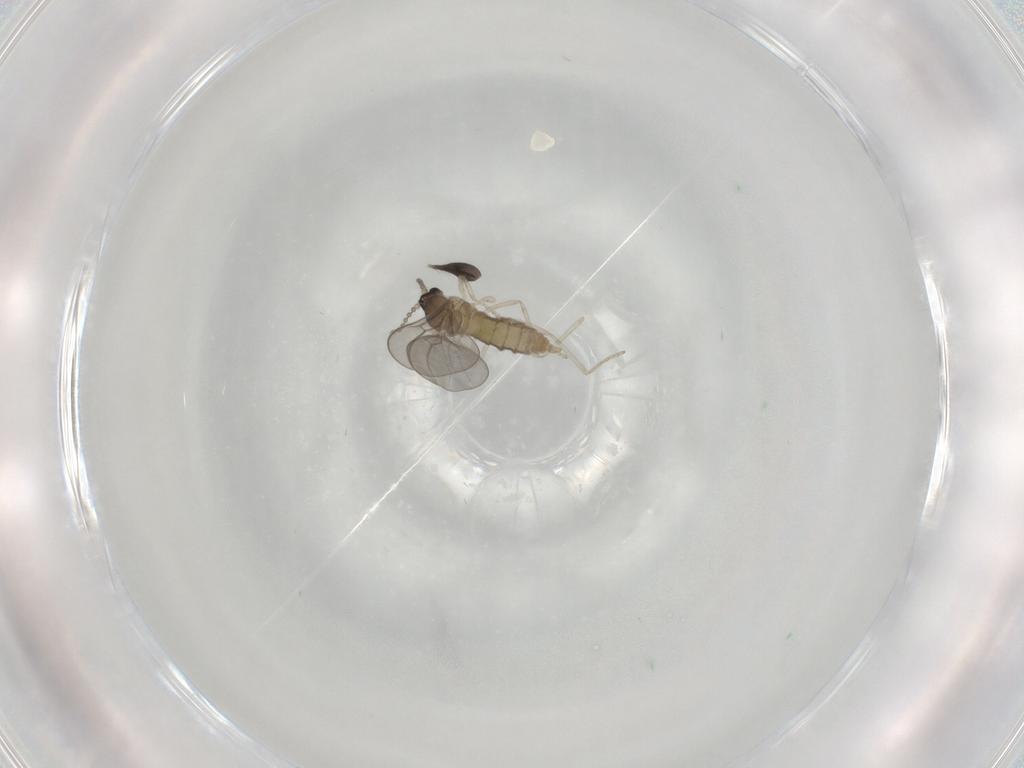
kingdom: Animalia
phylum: Arthropoda
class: Insecta
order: Diptera
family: Cecidomyiidae
